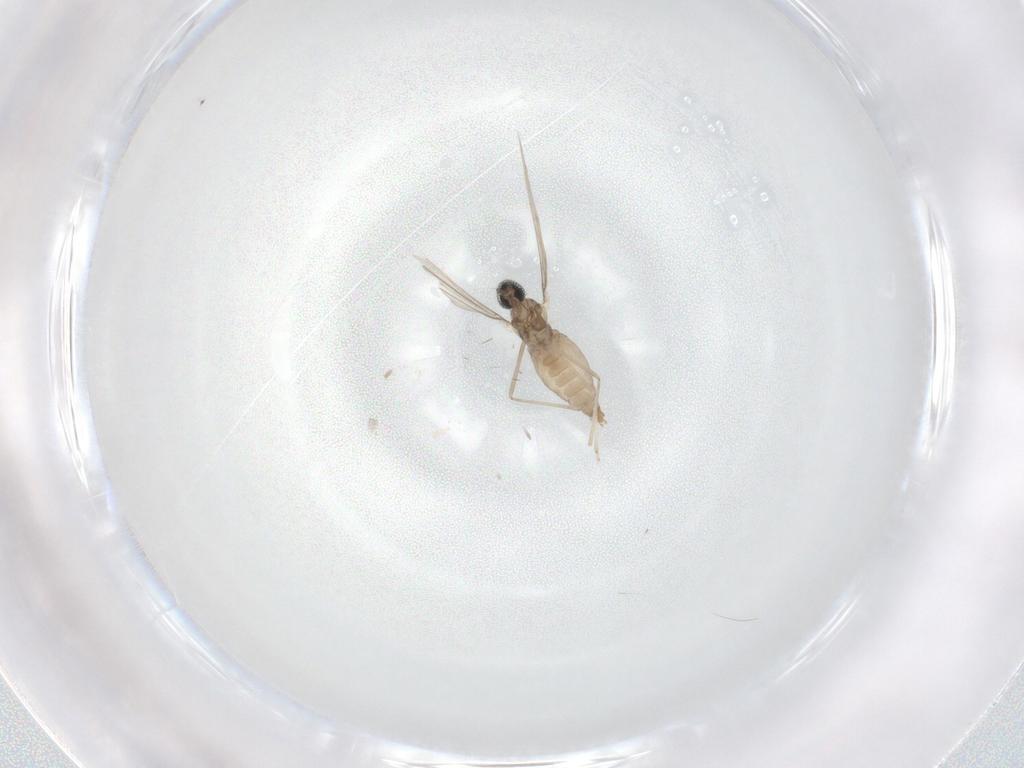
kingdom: Animalia
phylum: Arthropoda
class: Insecta
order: Diptera
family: Cecidomyiidae
